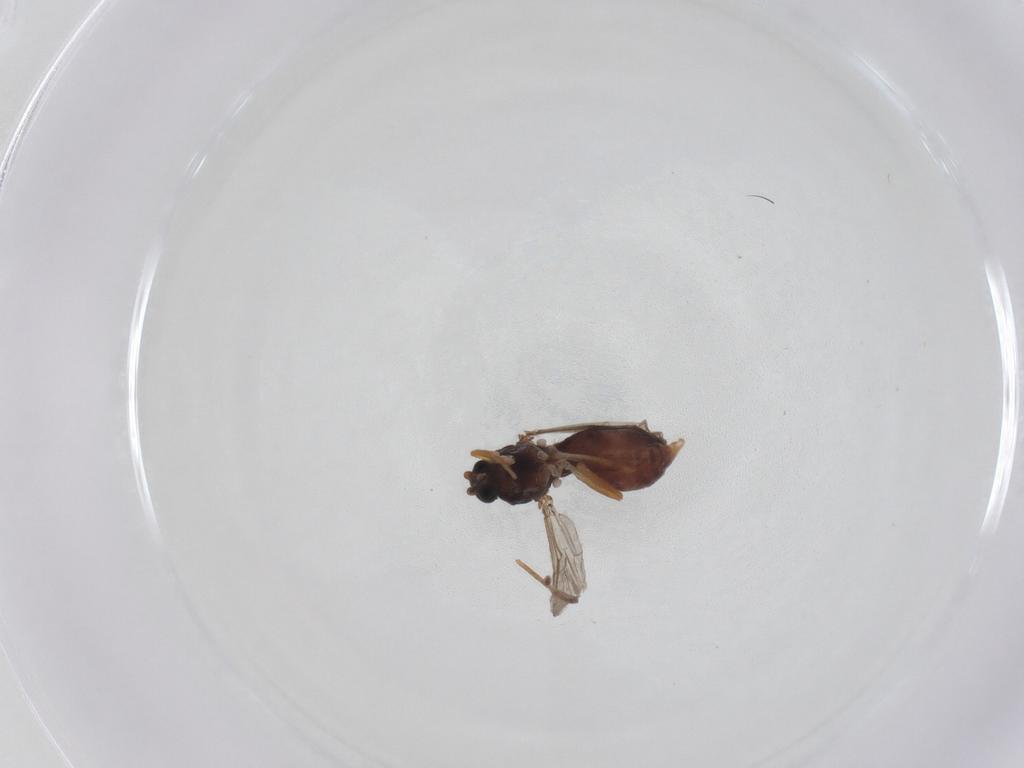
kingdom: Animalia
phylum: Arthropoda
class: Insecta
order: Diptera
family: Ceratopogonidae
